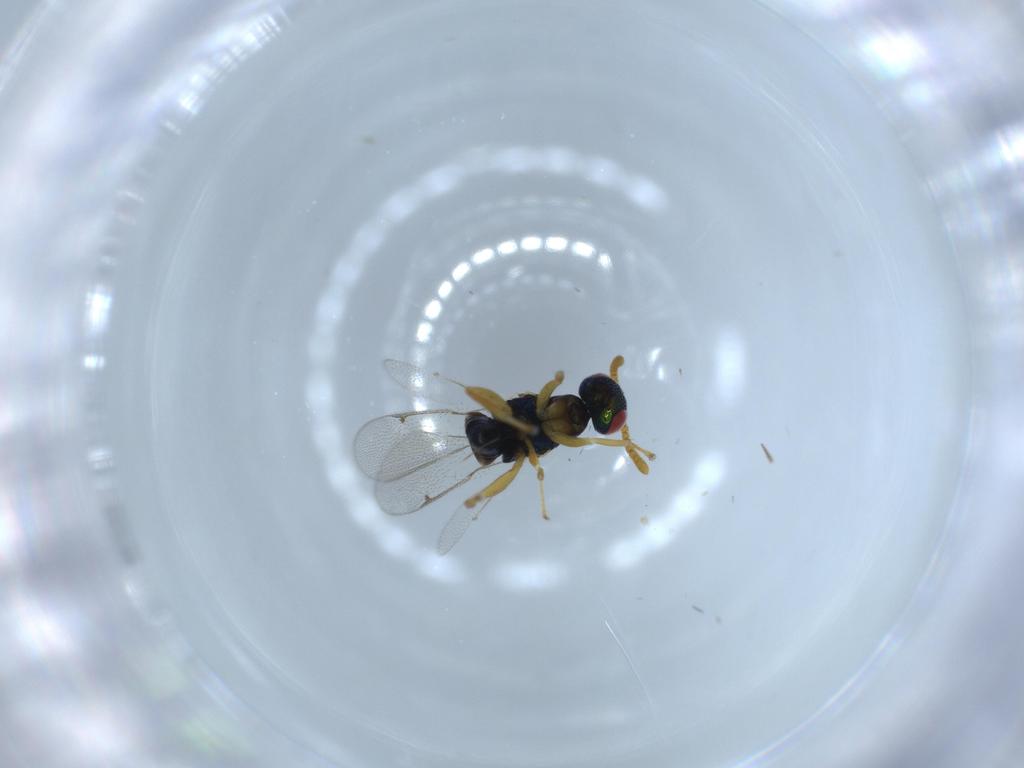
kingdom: Animalia
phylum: Arthropoda
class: Insecta
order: Hymenoptera
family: Torymidae
